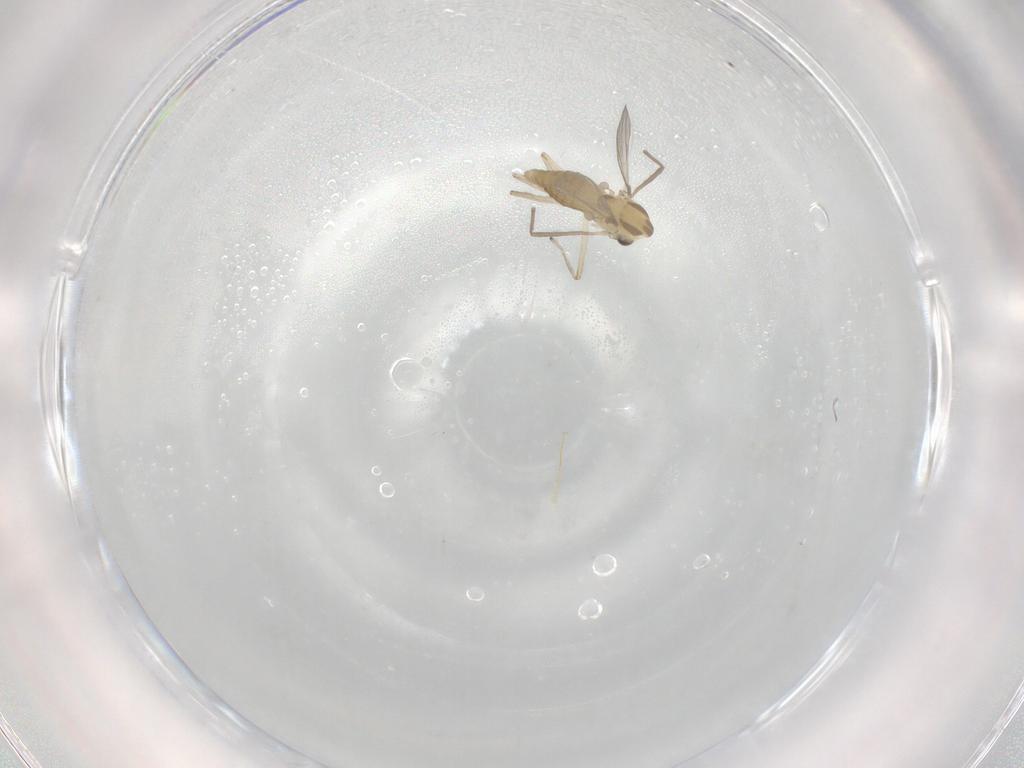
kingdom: Animalia
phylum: Arthropoda
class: Insecta
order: Diptera
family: Chironomidae
